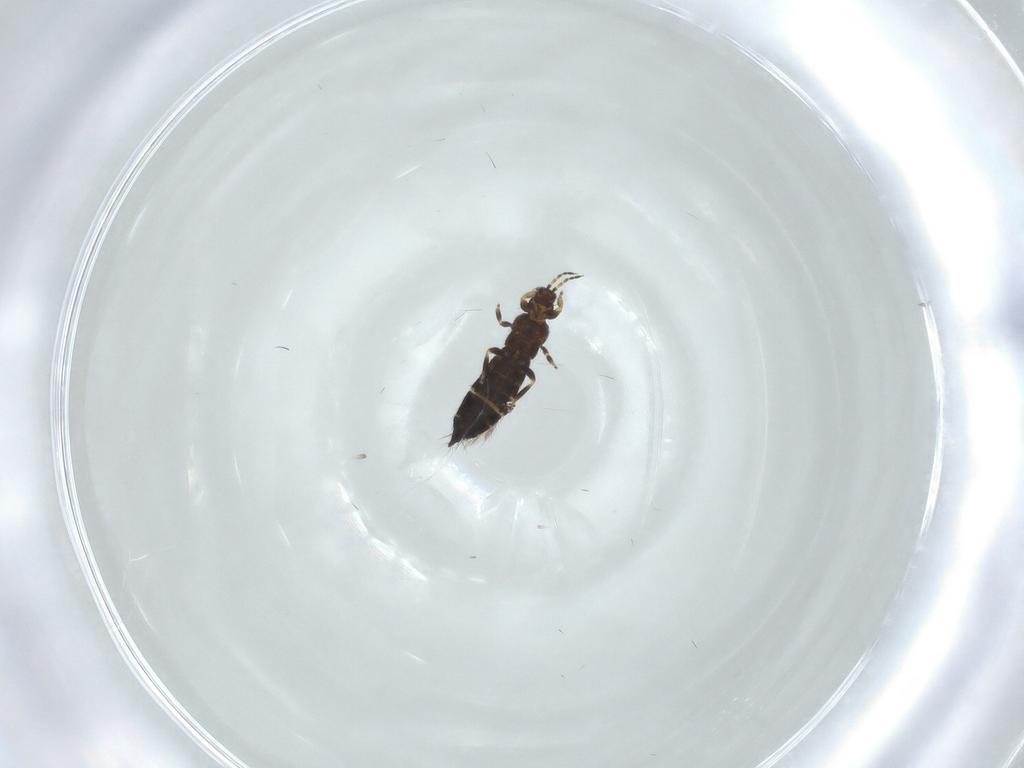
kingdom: Animalia
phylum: Arthropoda
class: Insecta
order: Thysanoptera
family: Thripidae
